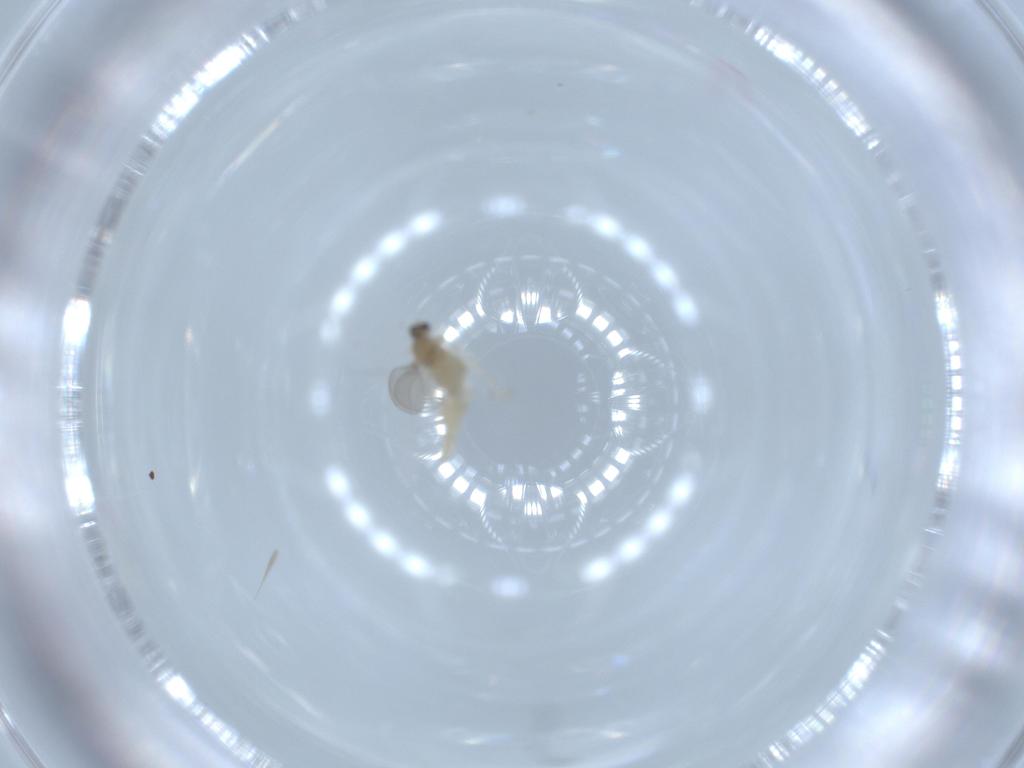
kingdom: Animalia
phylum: Arthropoda
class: Insecta
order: Diptera
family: Cecidomyiidae
